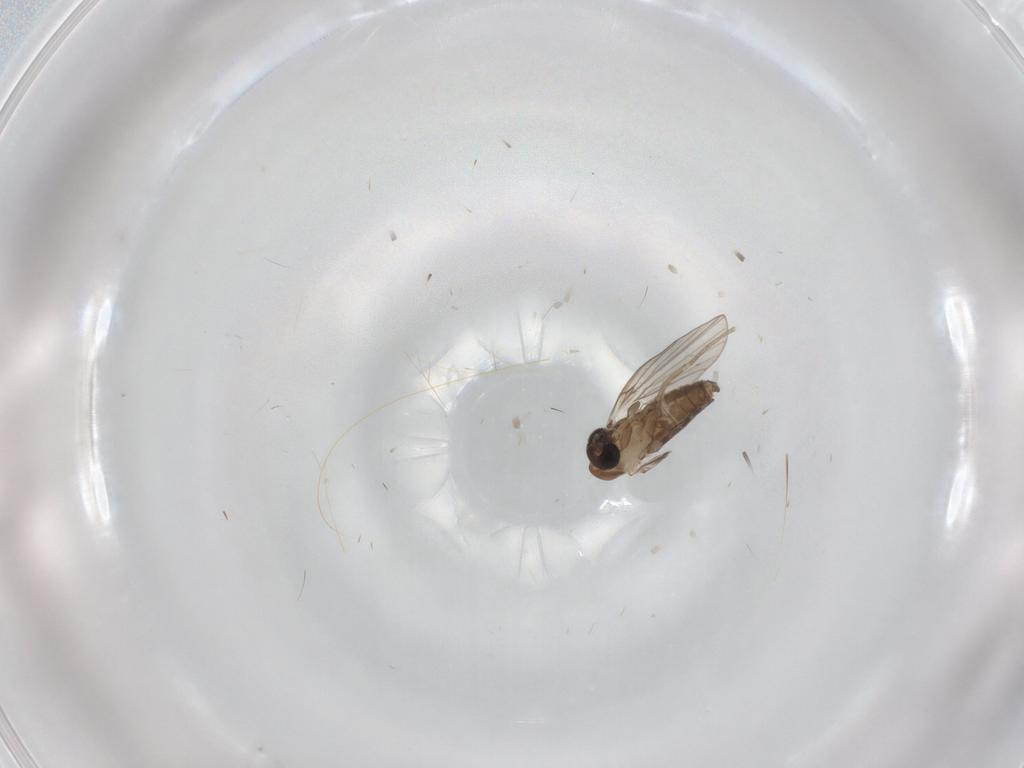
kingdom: Animalia
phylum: Arthropoda
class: Insecta
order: Diptera
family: Psychodidae
